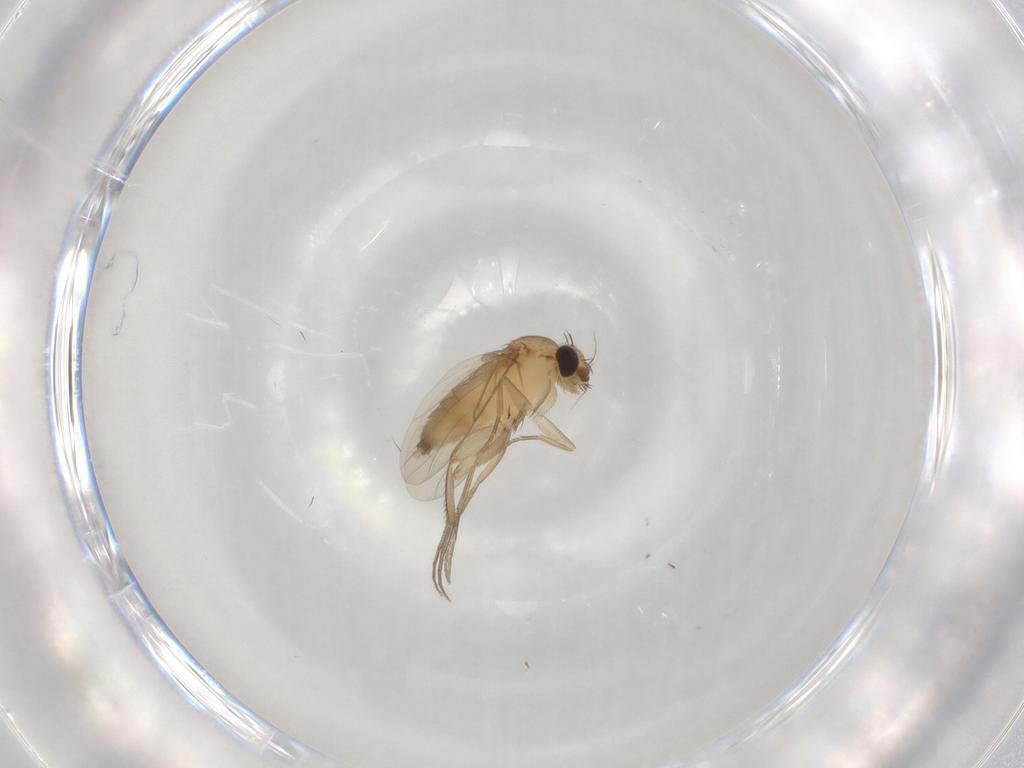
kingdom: Animalia
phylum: Arthropoda
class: Insecta
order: Diptera
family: Phoridae
